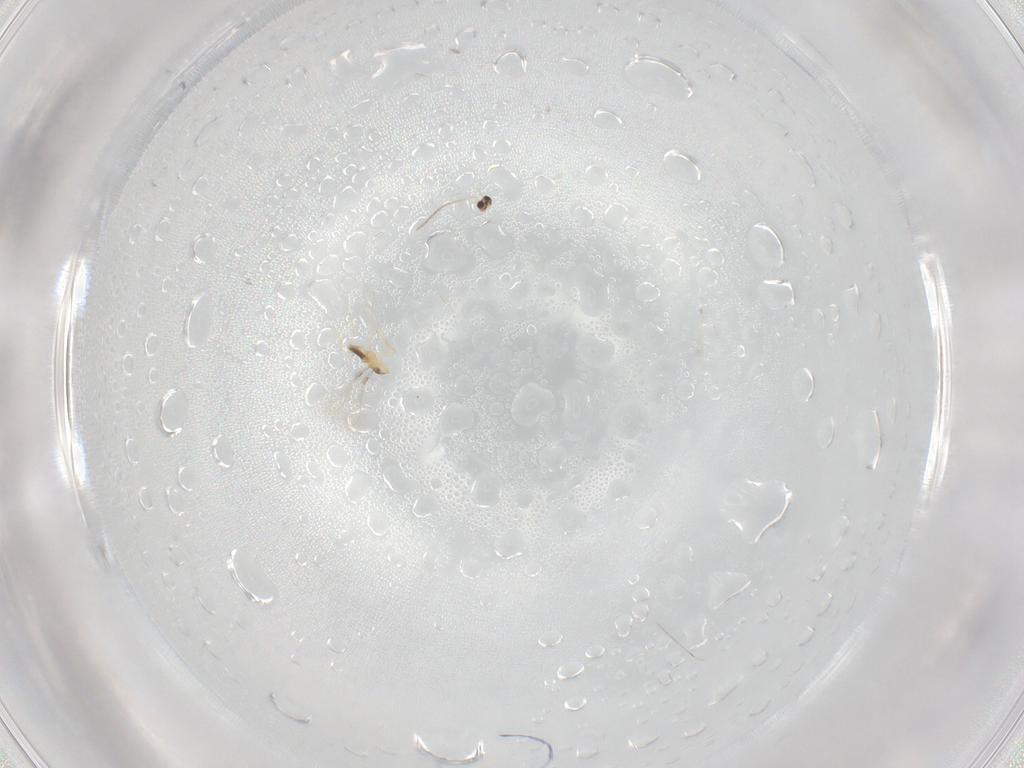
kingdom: Animalia
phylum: Arthropoda
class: Insecta
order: Hymenoptera
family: Mymaridae
